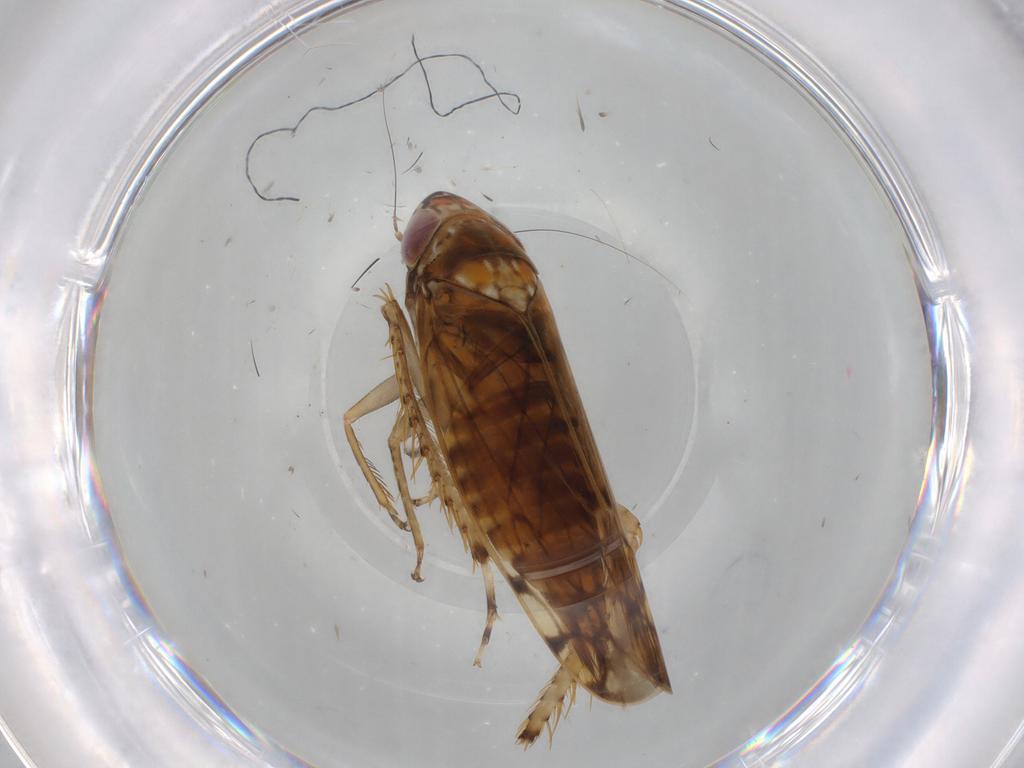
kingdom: Animalia
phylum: Arthropoda
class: Insecta
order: Hemiptera
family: Cicadellidae
